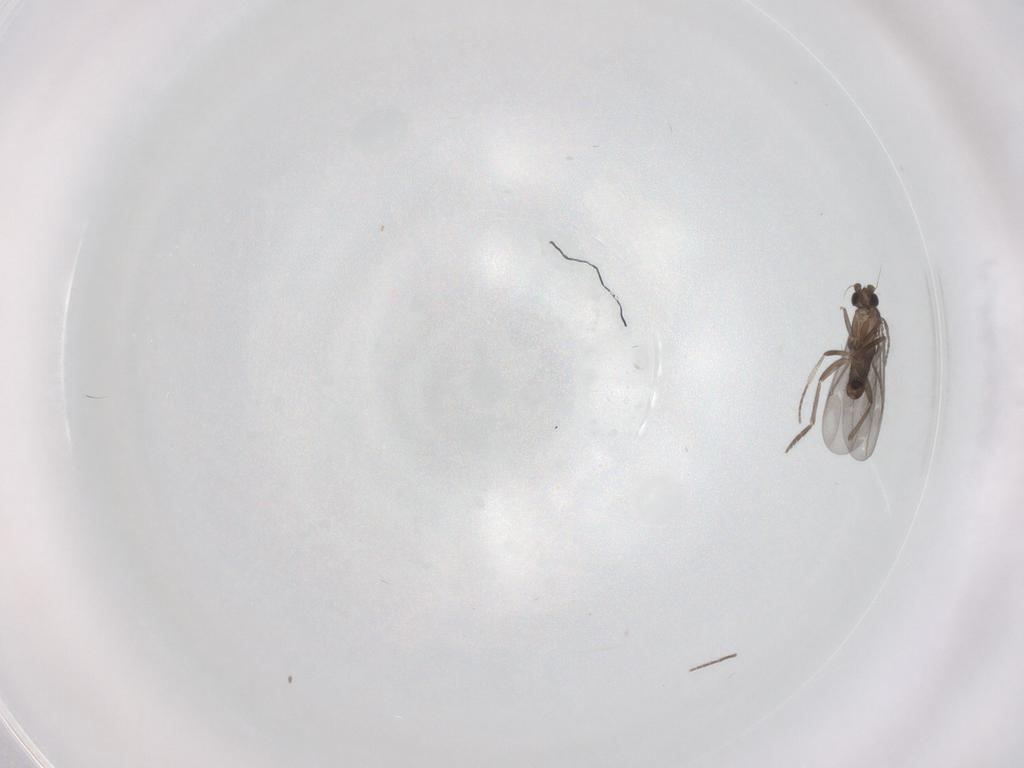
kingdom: Animalia
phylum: Arthropoda
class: Insecta
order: Diptera
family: Phoridae
